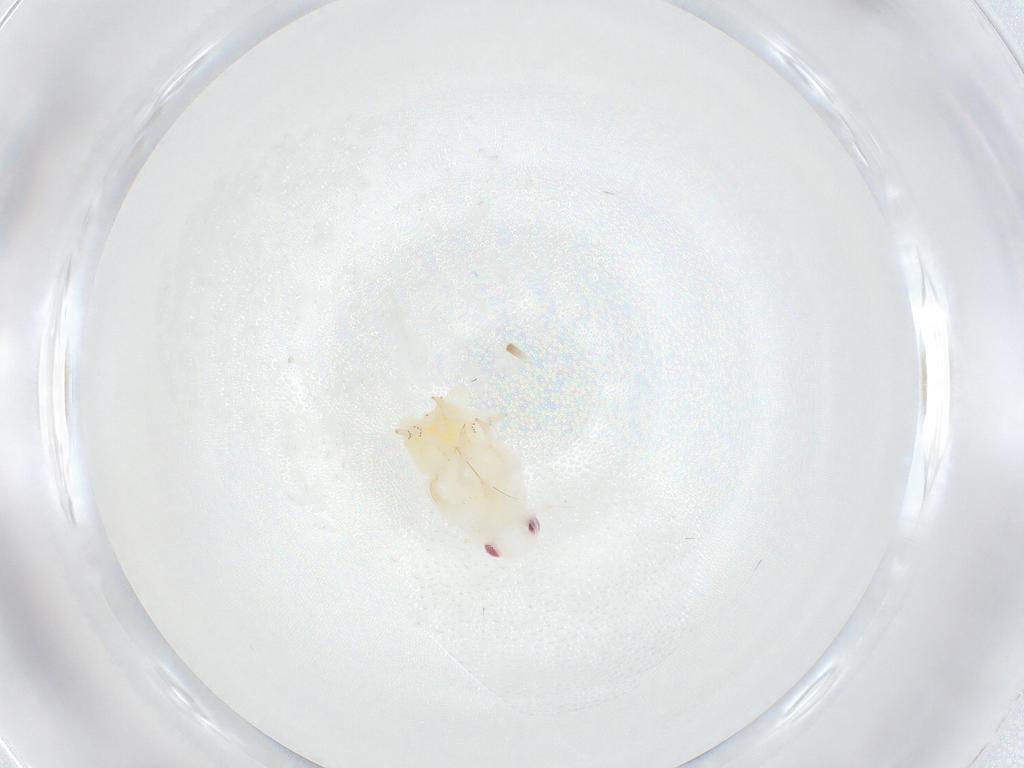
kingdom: Animalia
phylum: Arthropoda
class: Insecta
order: Hemiptera
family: Flatidae
